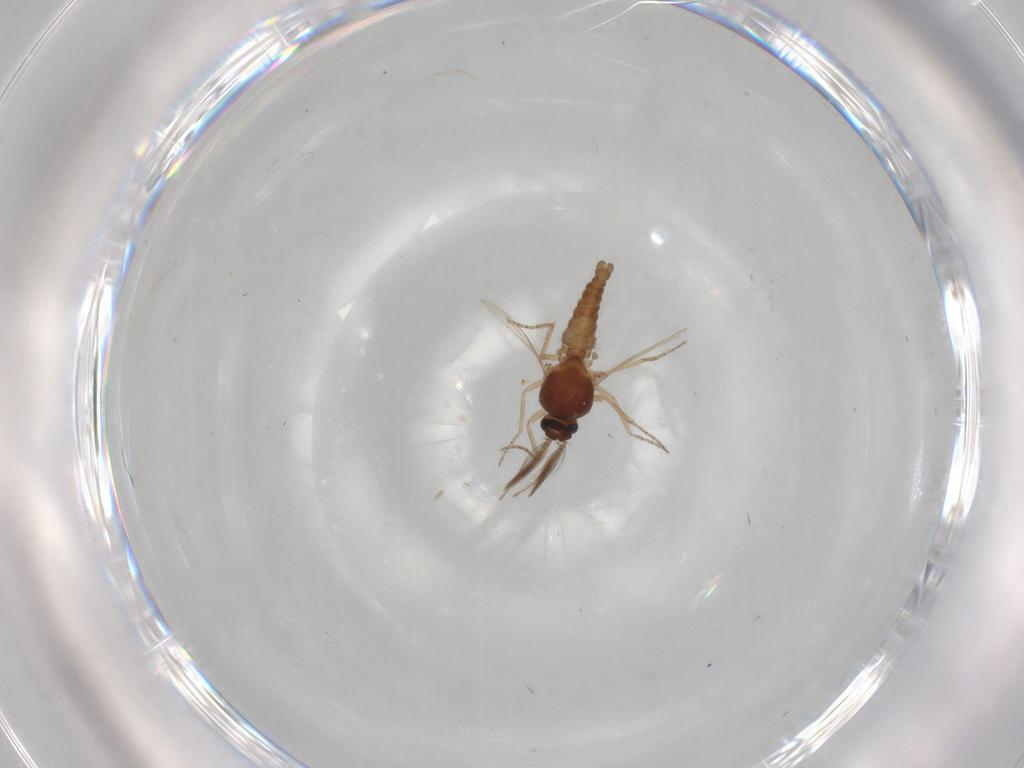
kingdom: Animalia
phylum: Arthropoda
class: Insecta
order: Diptera
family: Ceratopogonidae
